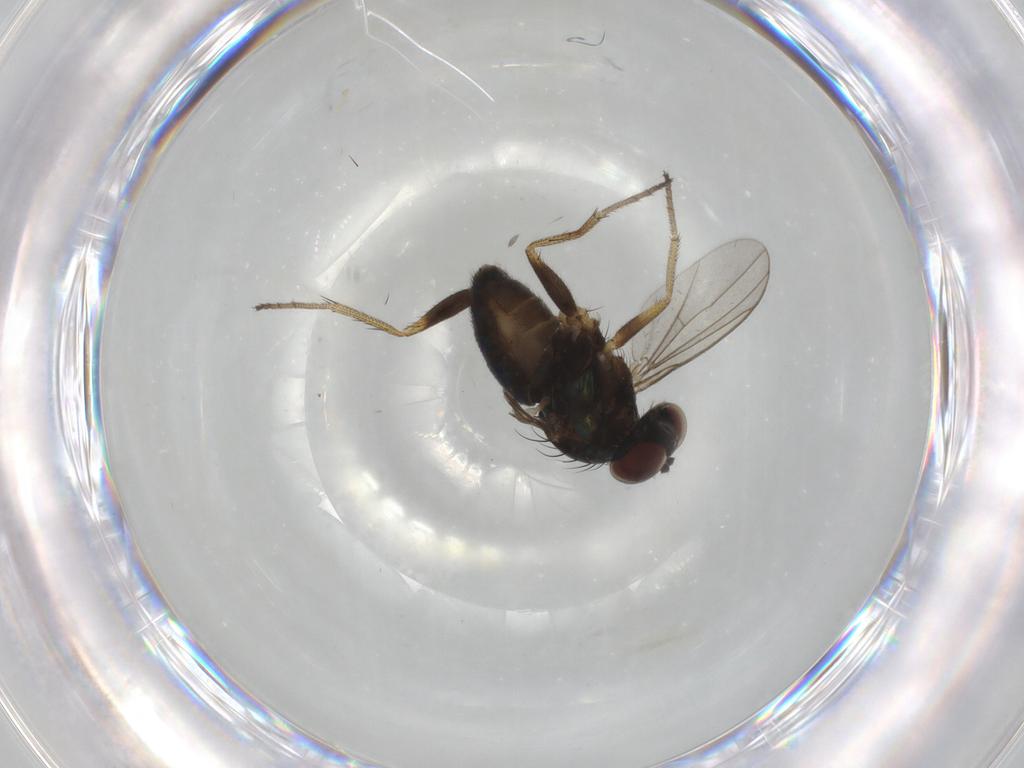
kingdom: Animalia
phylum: Arthropoda
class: Insecta
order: Diptera
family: Dolichopodidae
